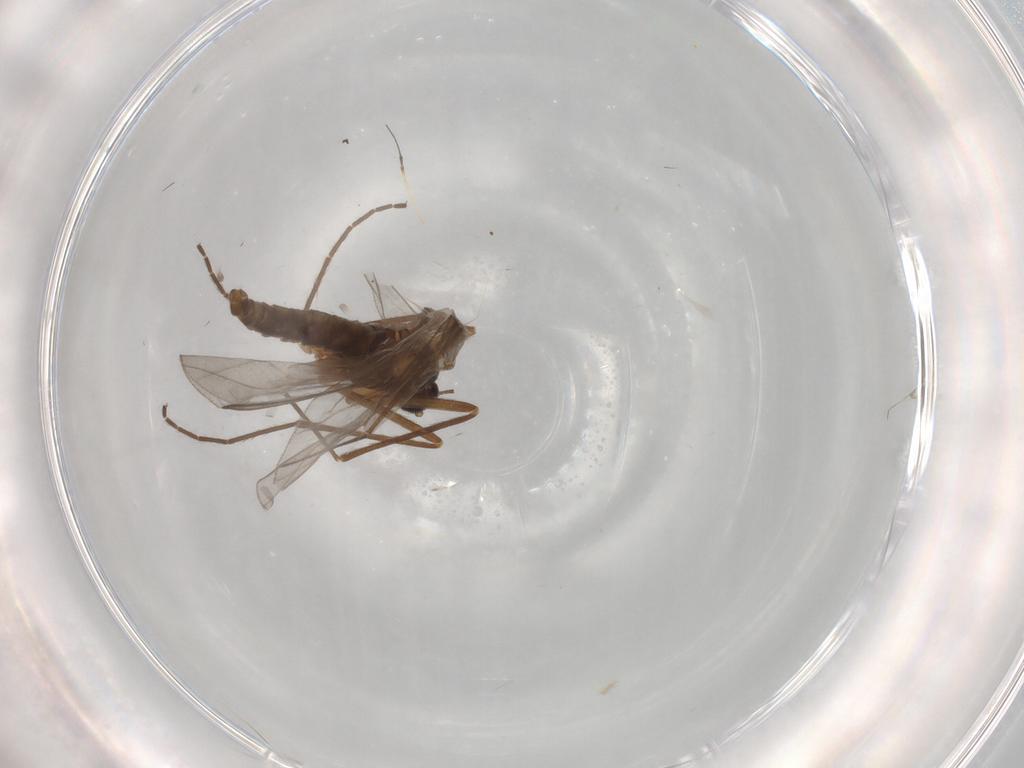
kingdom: Animalia
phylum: Arthropoda
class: Insecta
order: Diptera
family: Cecidomyiidae
